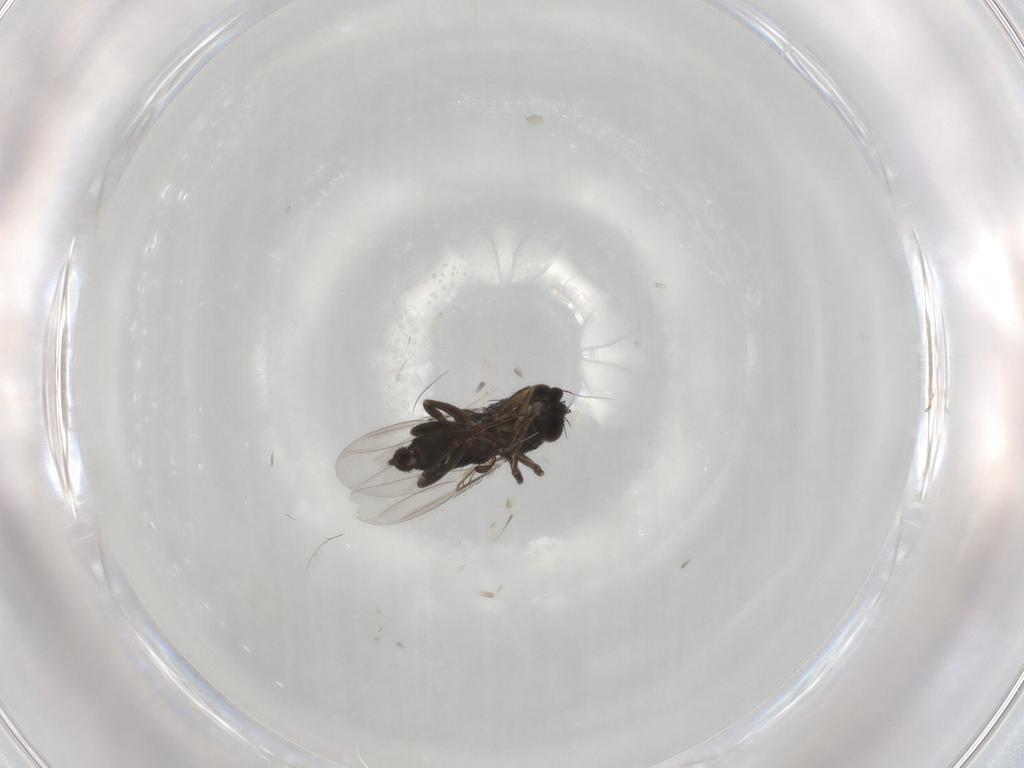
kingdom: Animalia
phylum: Arthropoda
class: Insecta
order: Diptera
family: Phoridae
